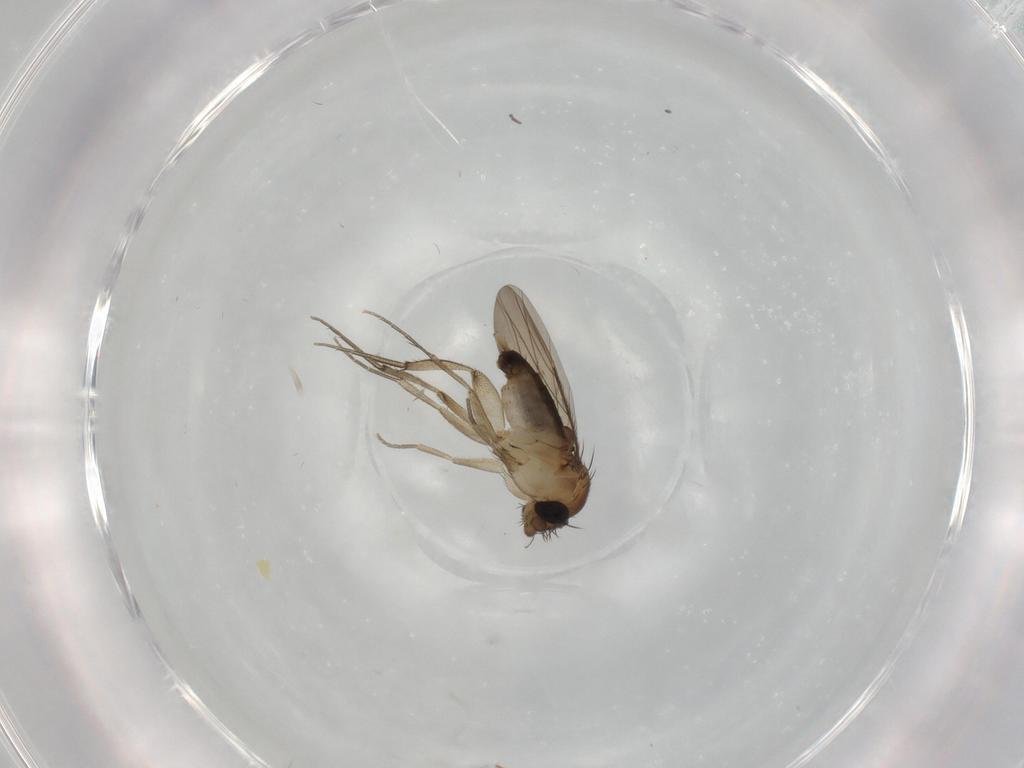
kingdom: Animalia
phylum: Arthropoda
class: Insecta
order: Diptera
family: Phoridae
